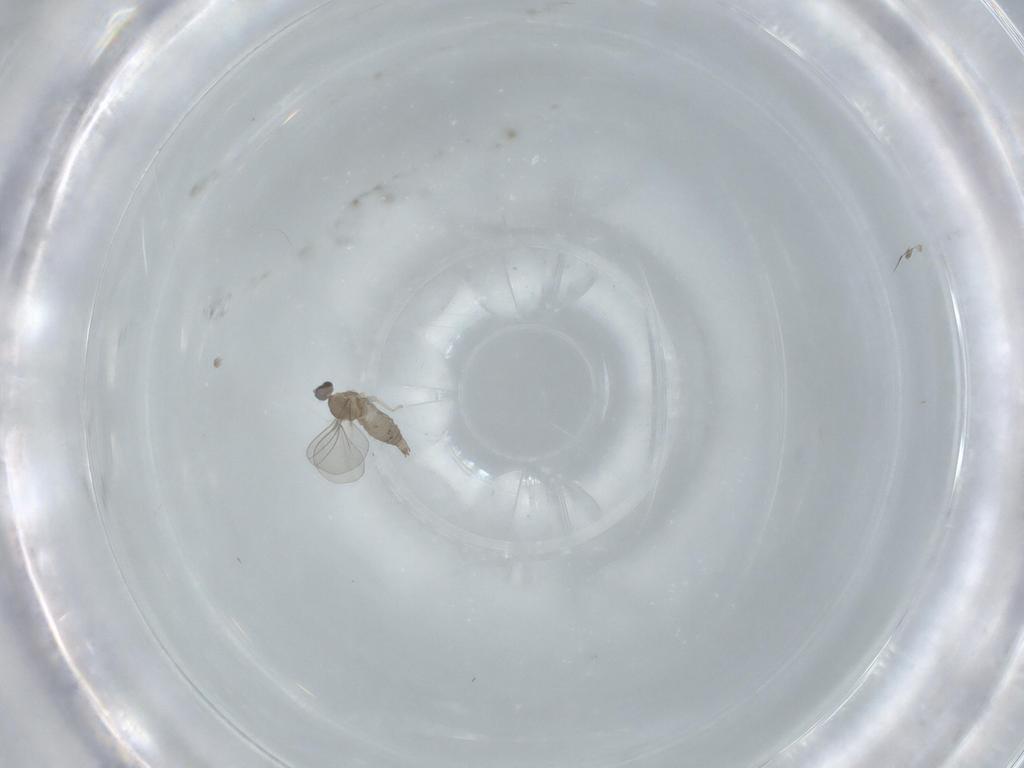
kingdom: Animalia
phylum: Arthropoda
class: Insecta
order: Diptera
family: Cecidomyiidae
